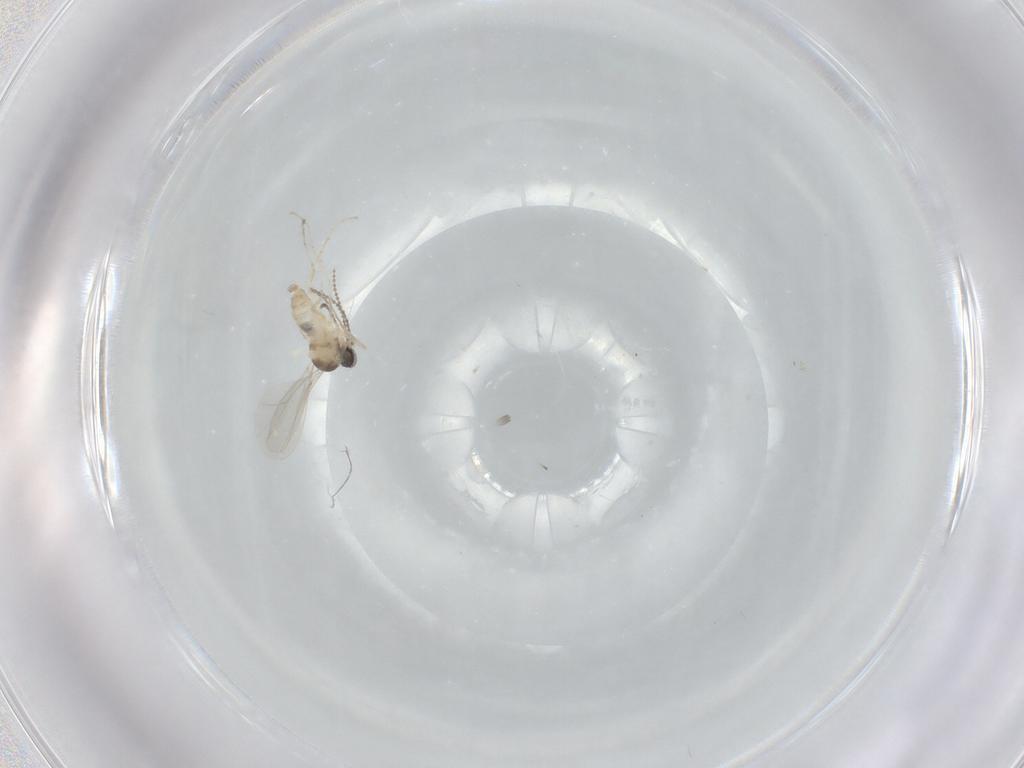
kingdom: Animalia
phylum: Arthropoda
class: Insecta
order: Diptera
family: Cecidomyiidae
